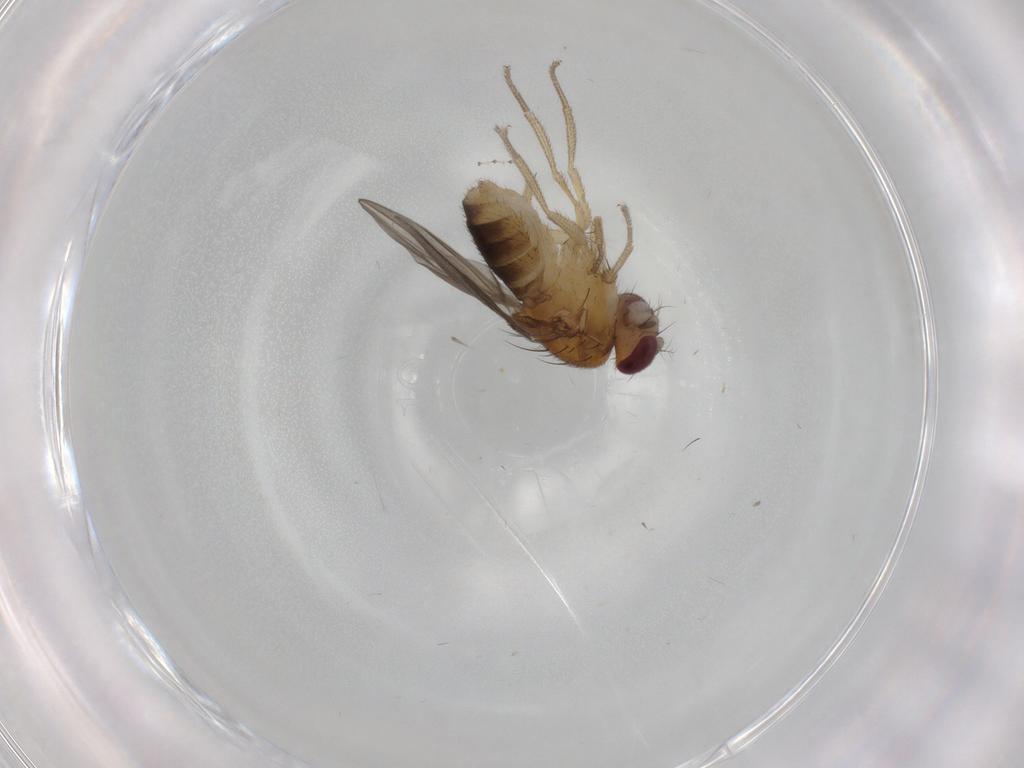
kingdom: Animalia
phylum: Arthropoda
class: Insecta
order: Diptera
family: Drosophilidae
